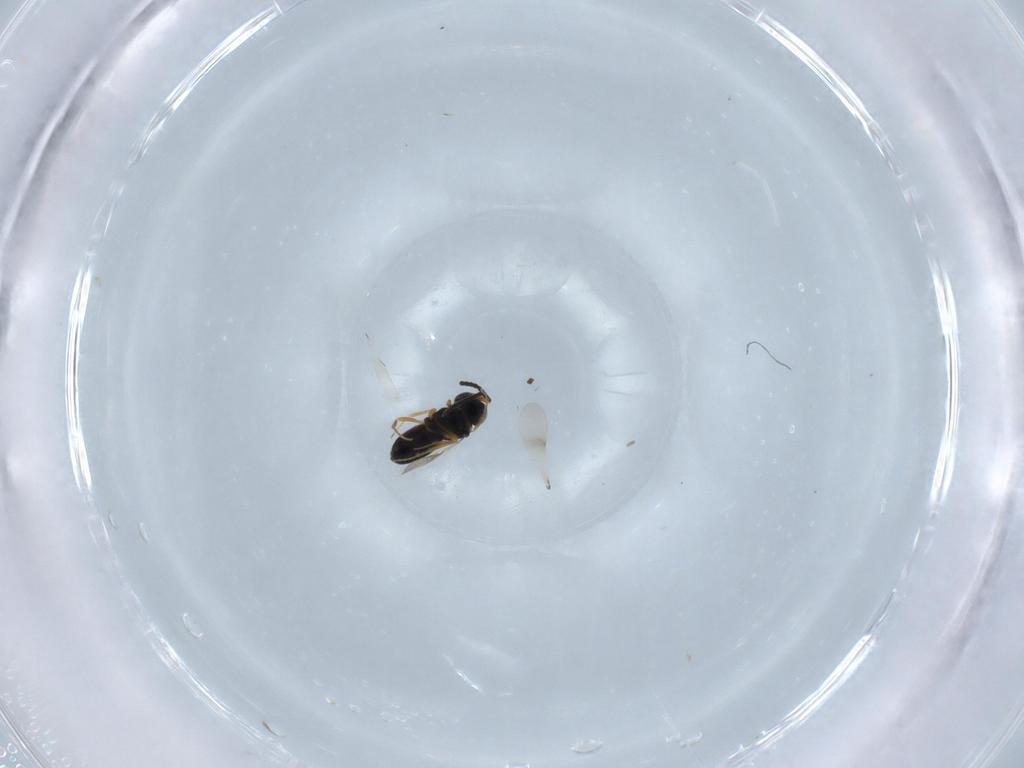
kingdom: Animalia
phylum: Arthropoda
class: Insecta
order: Hymenoptera
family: Scelionidae
